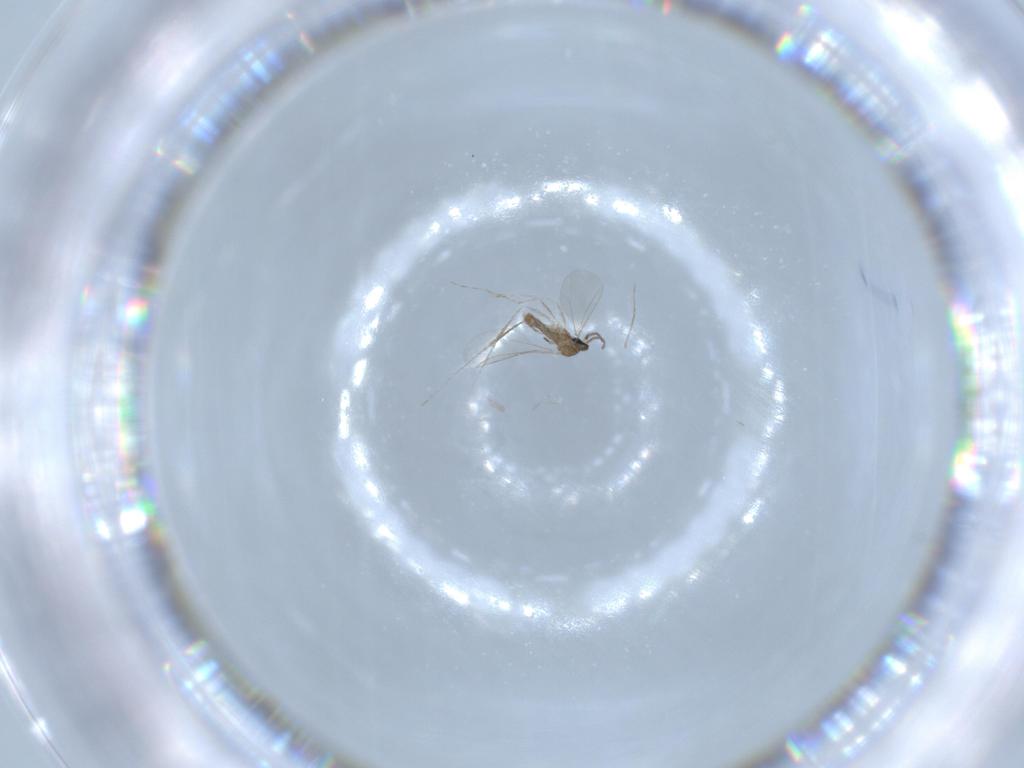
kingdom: Animalia
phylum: Arthropoda
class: Insecta
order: Diptera
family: Cecidomyiidae
